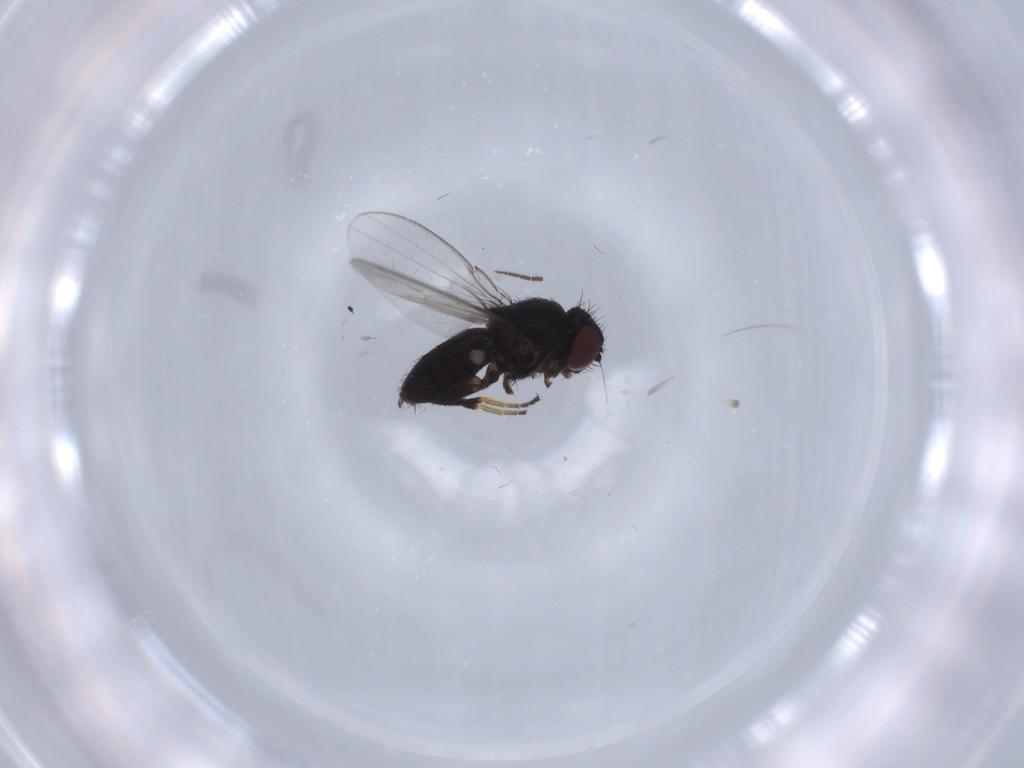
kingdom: Animalia
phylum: Arthropoda
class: Insecta
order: Diptera
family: Milichiidae
